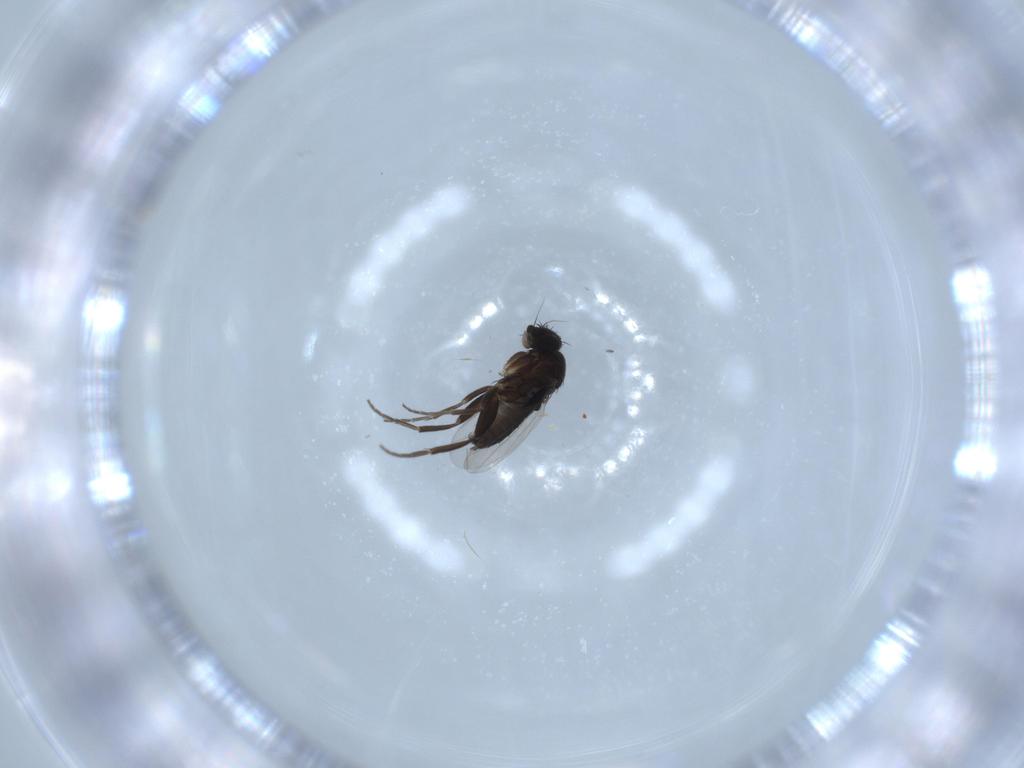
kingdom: Animalia
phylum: Arthropoda
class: Insecta
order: Diptera
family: Phoridae
